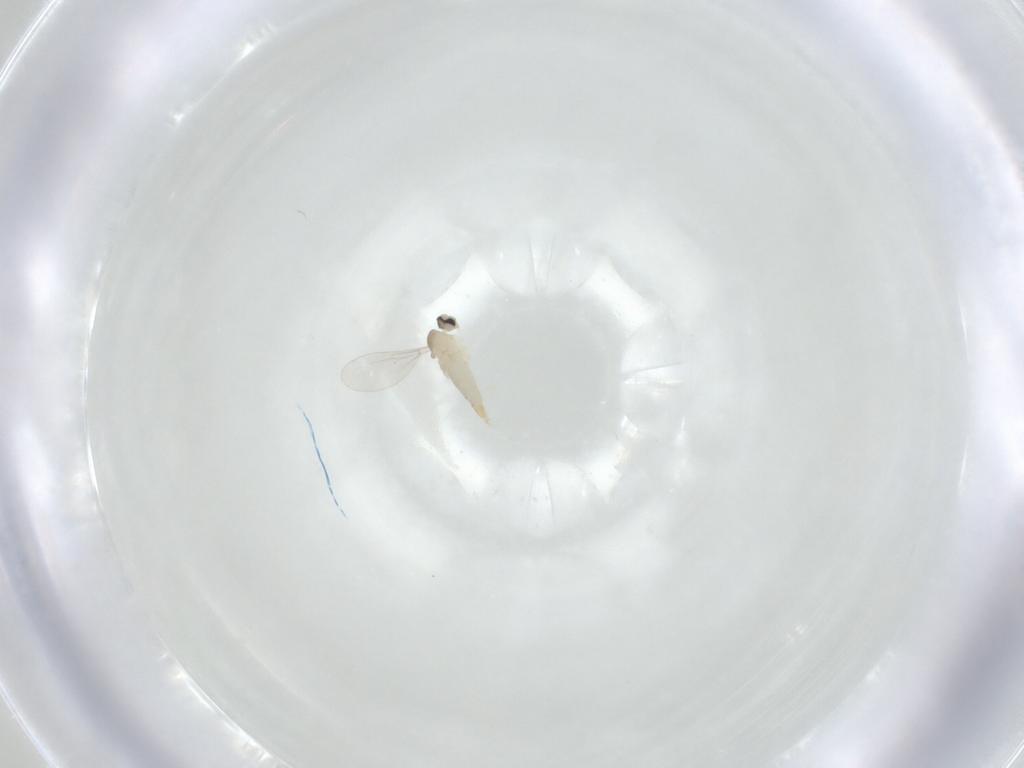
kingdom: Animalia
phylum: Arthropoda
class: Insecta
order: Diptera
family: Cecidomyiidae
